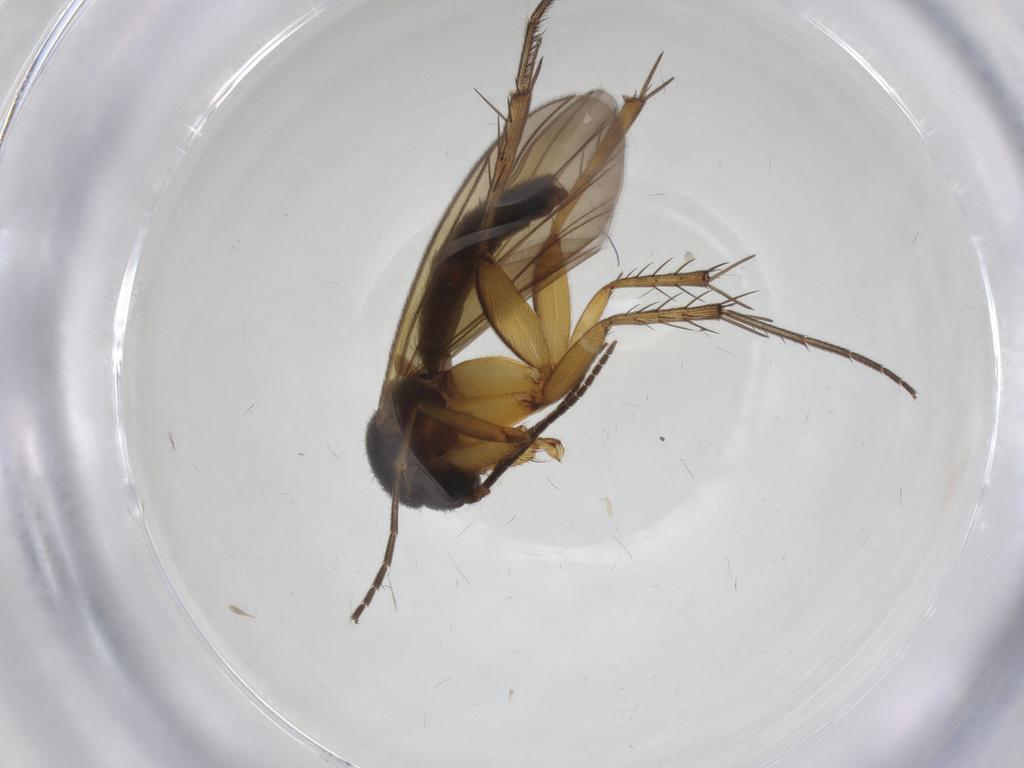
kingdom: Animalia
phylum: Arthropoda
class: Insecta
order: Diptera
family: Chironomidae
